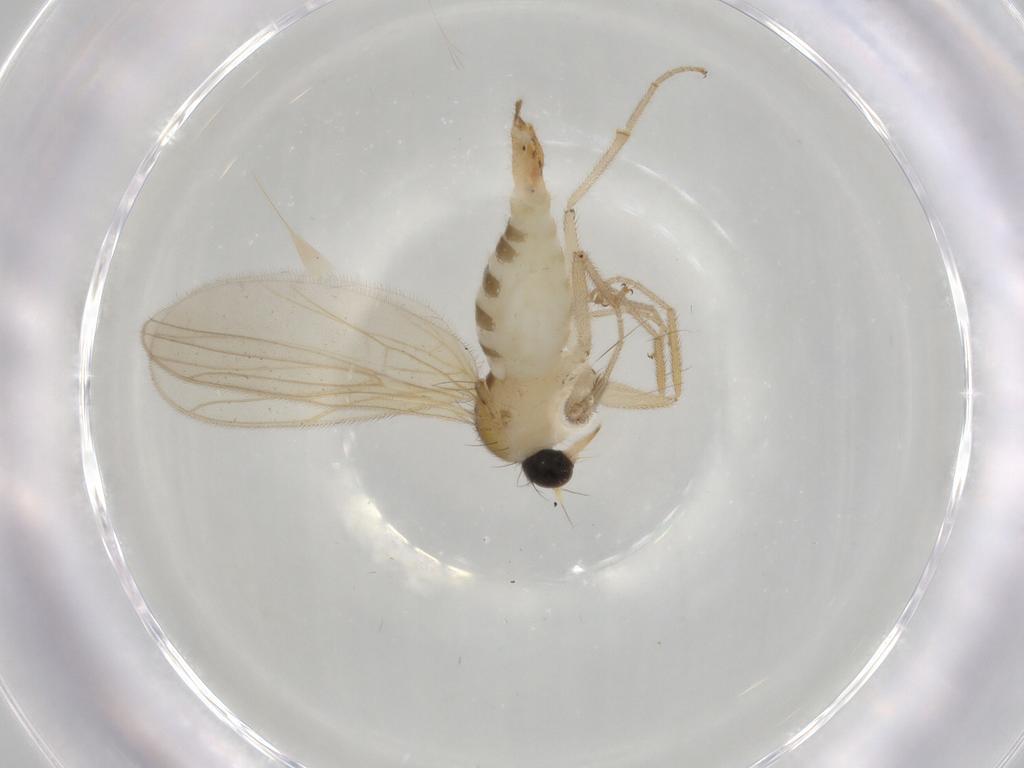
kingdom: Animalia
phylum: Arthropoda
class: Insecta
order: Diptera
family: Hybotidae
